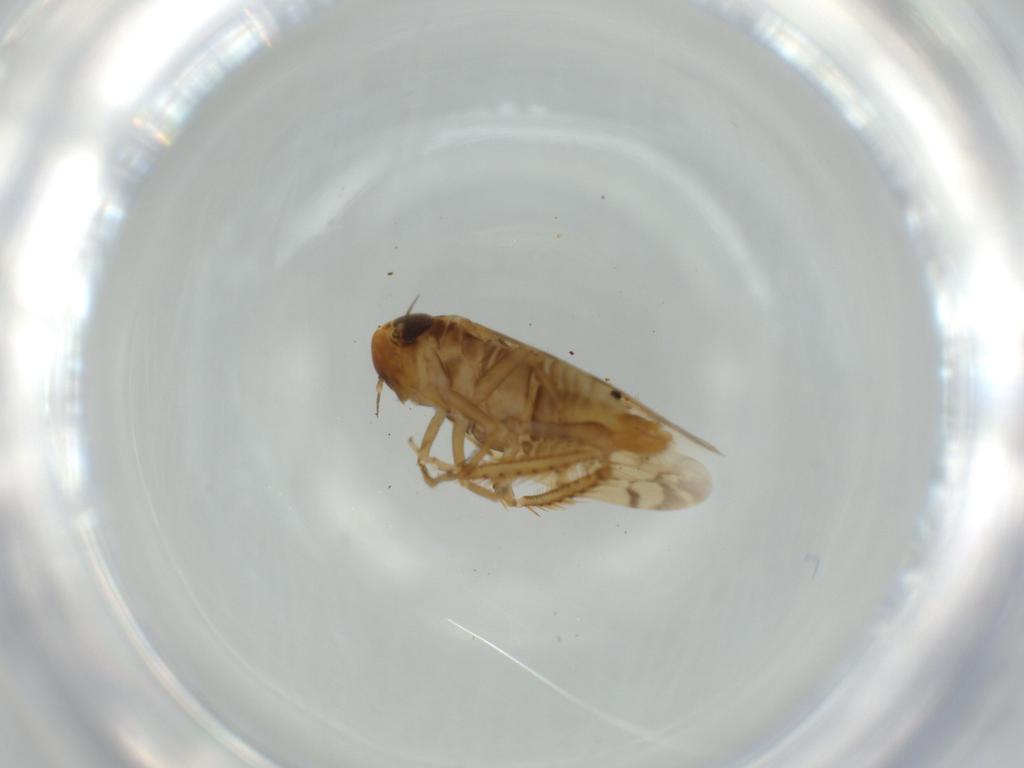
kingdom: Animalia
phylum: Arthropoda
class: Insecta
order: Hemiptera
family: Cicadellidae
